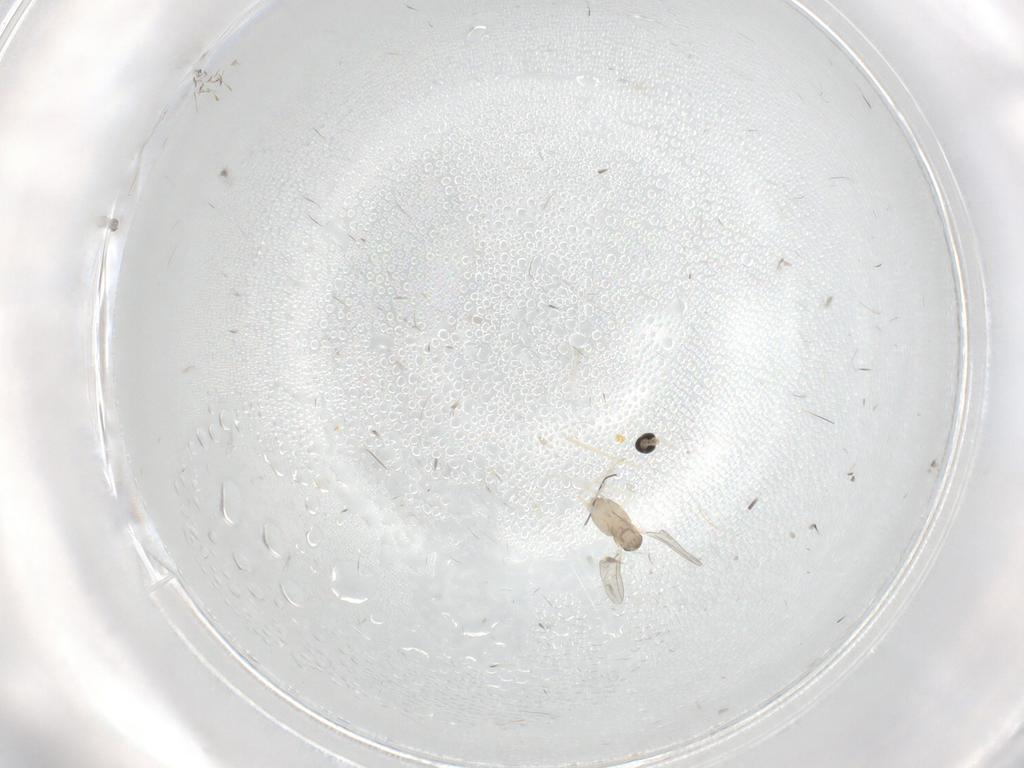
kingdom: Animalia
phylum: Arthropoda
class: Insecta
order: Diptera
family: Cecidomyiidae
